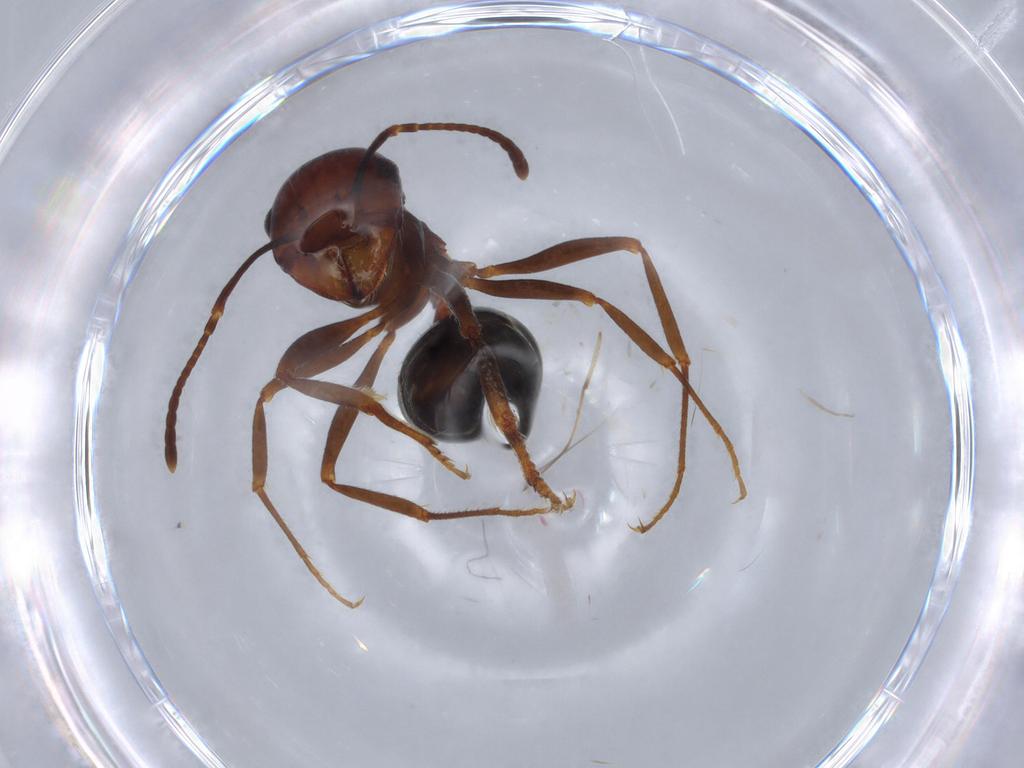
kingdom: Animalia
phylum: Arthropoda
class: Insecta
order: Hymenoptera
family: Formicidae
